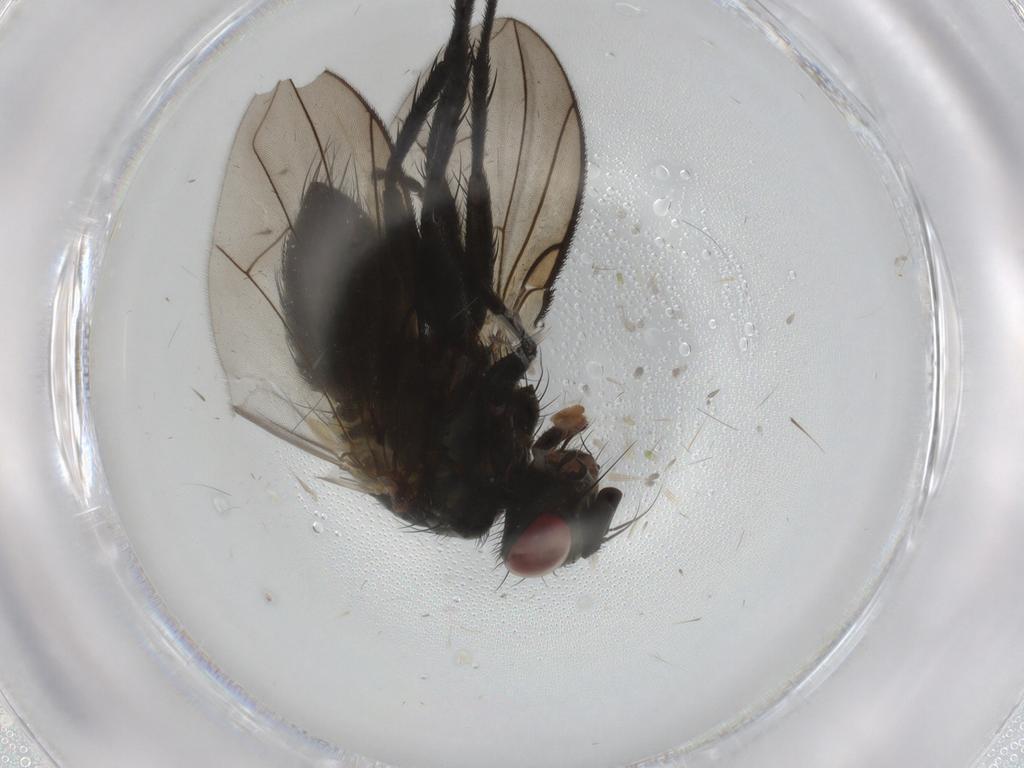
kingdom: Animalia
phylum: Arthropoda
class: Insecta
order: Diptera
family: Tachinidae
